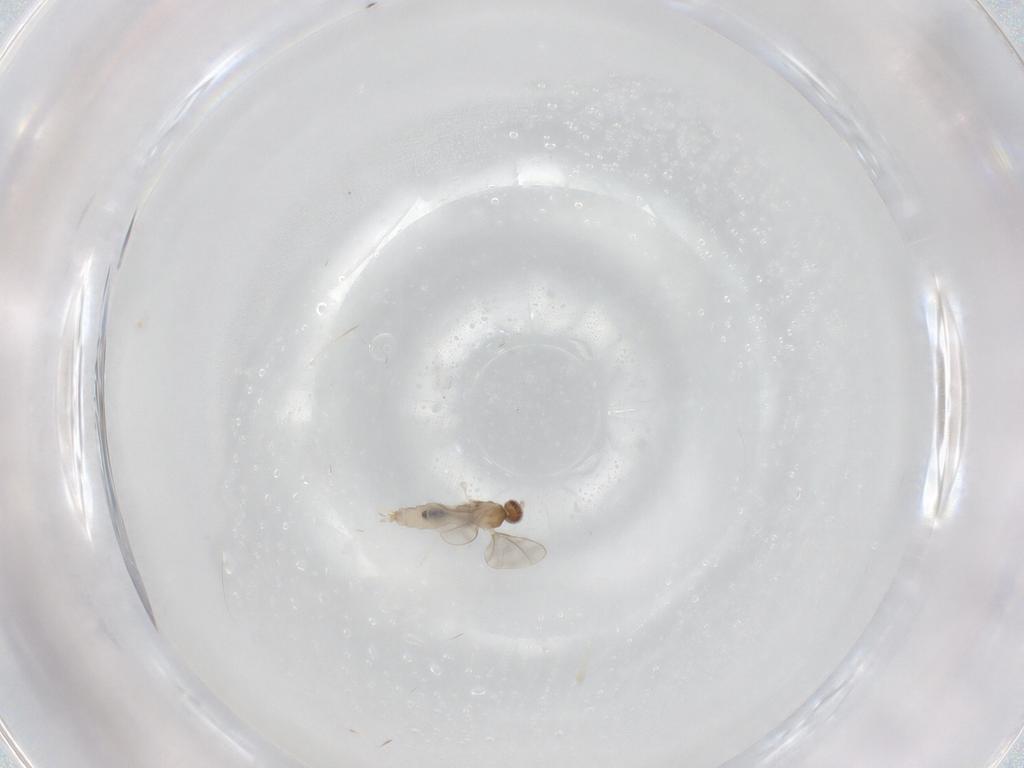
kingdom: Animalia
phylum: Arthropoda
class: Insecta
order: Diptera
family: Cecidomyiidae
